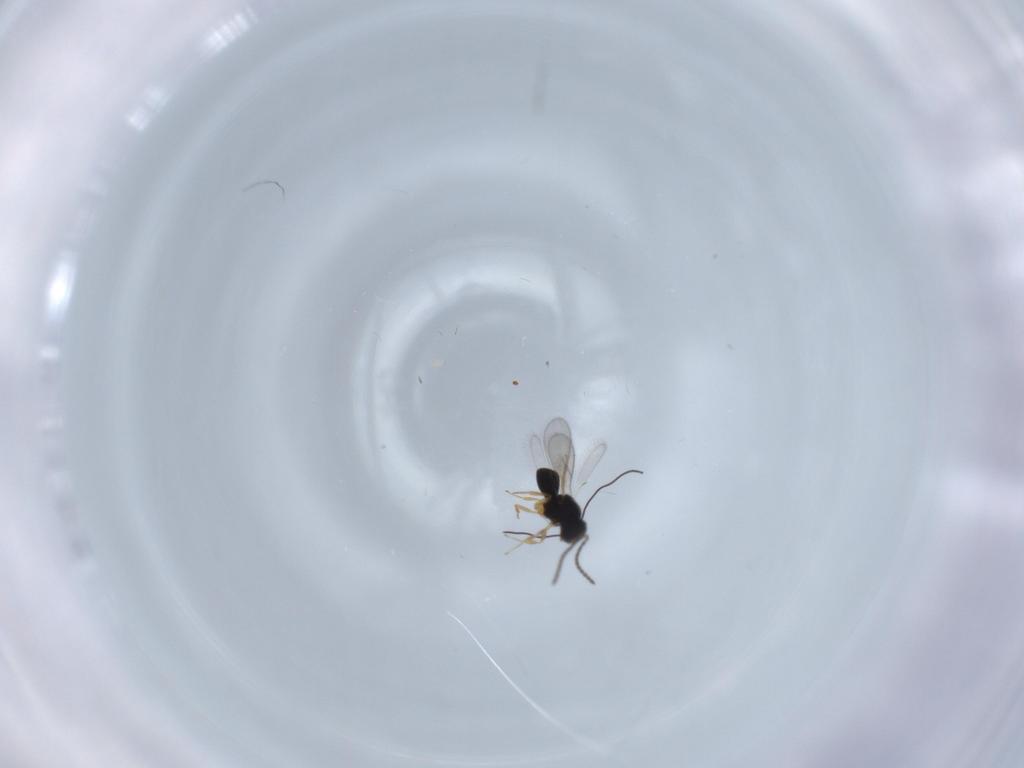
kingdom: Animalia
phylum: Arthropoda
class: Insecta
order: Hymenoptera
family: Scelionidae
